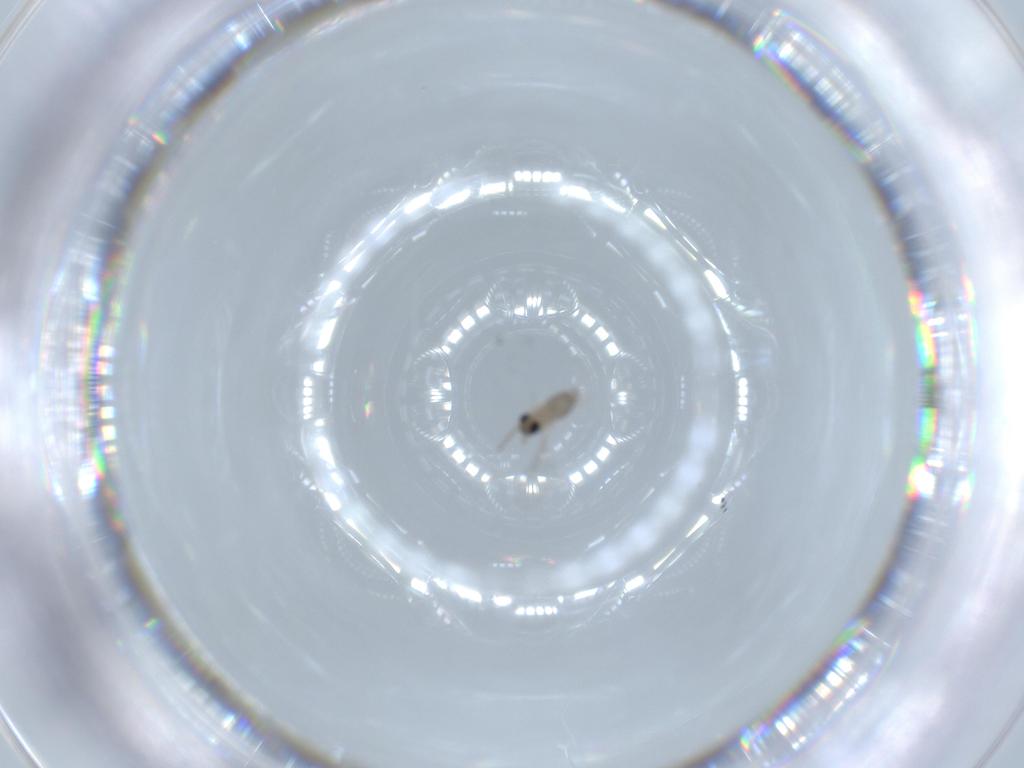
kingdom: Animalia
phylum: Arthropoda
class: Insecta
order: Diptera
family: Cecidomyiidae
